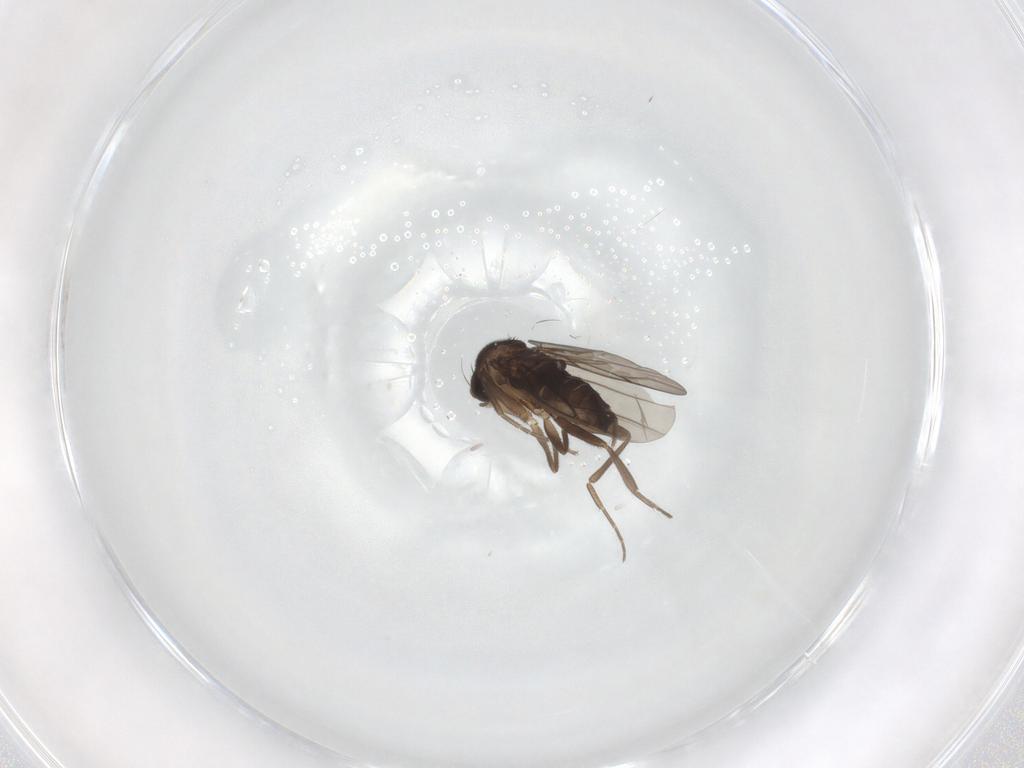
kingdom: Animalia
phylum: Arthropoda
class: Insecta
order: Diptera
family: Phoridae
